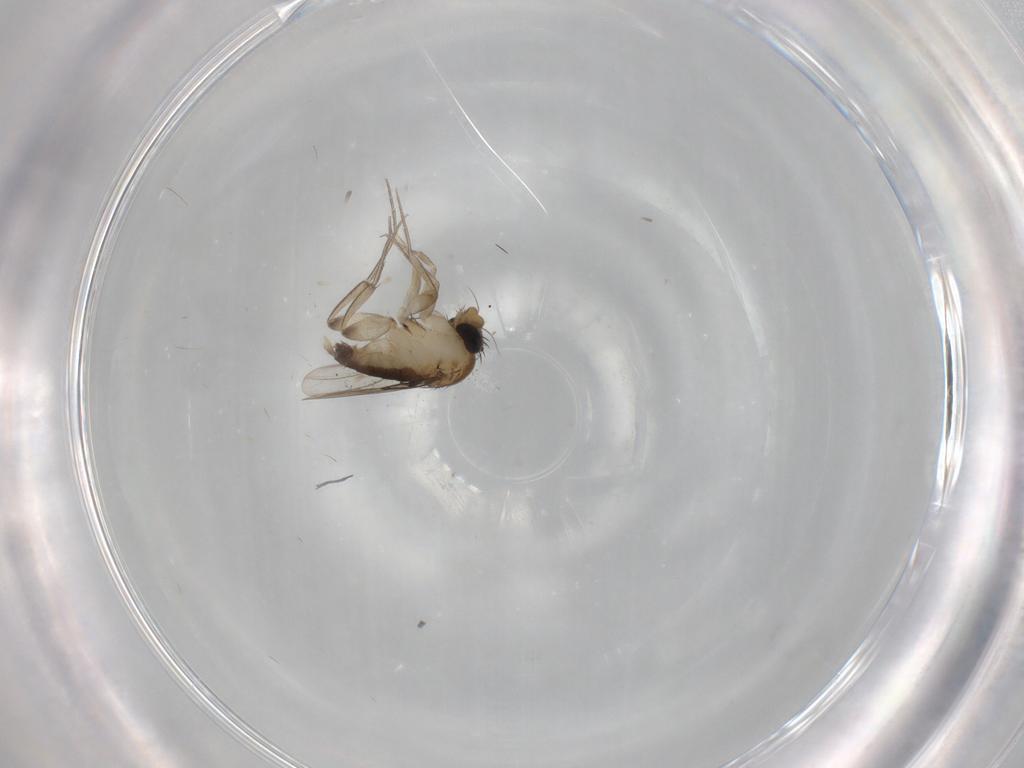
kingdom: Animalia
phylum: Arthropoda
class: Insecta
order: Diptera
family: Phoridae
